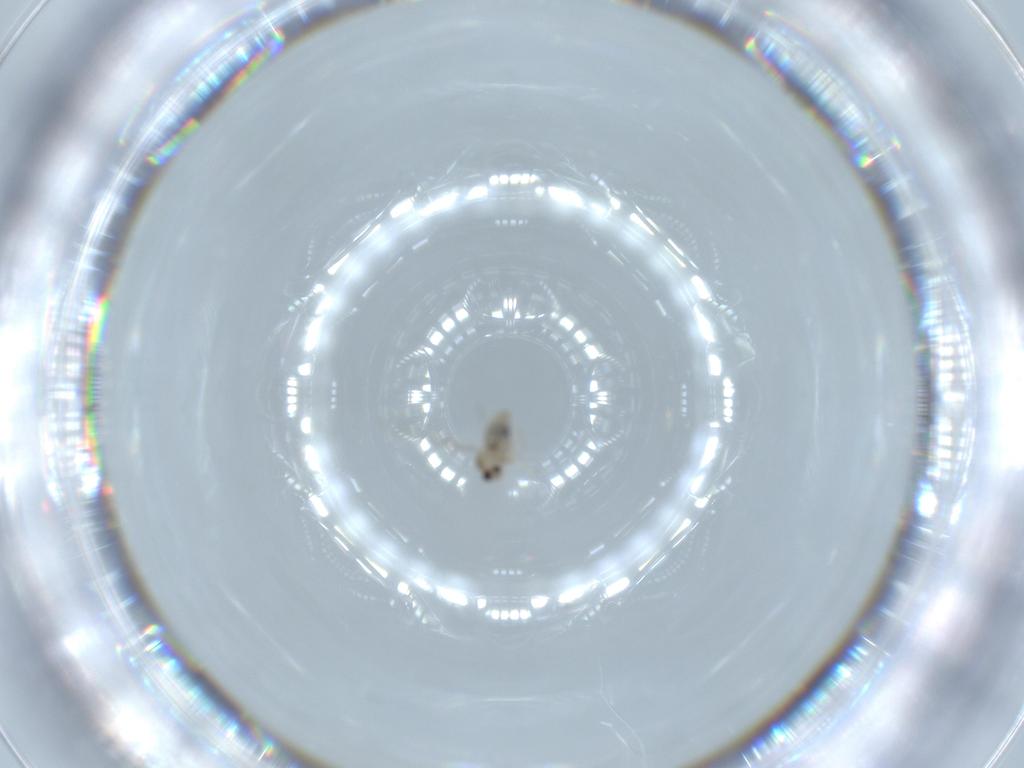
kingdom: Animalia
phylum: Arthropoda
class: Insecta
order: Diptera
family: Cecidomyiidae
